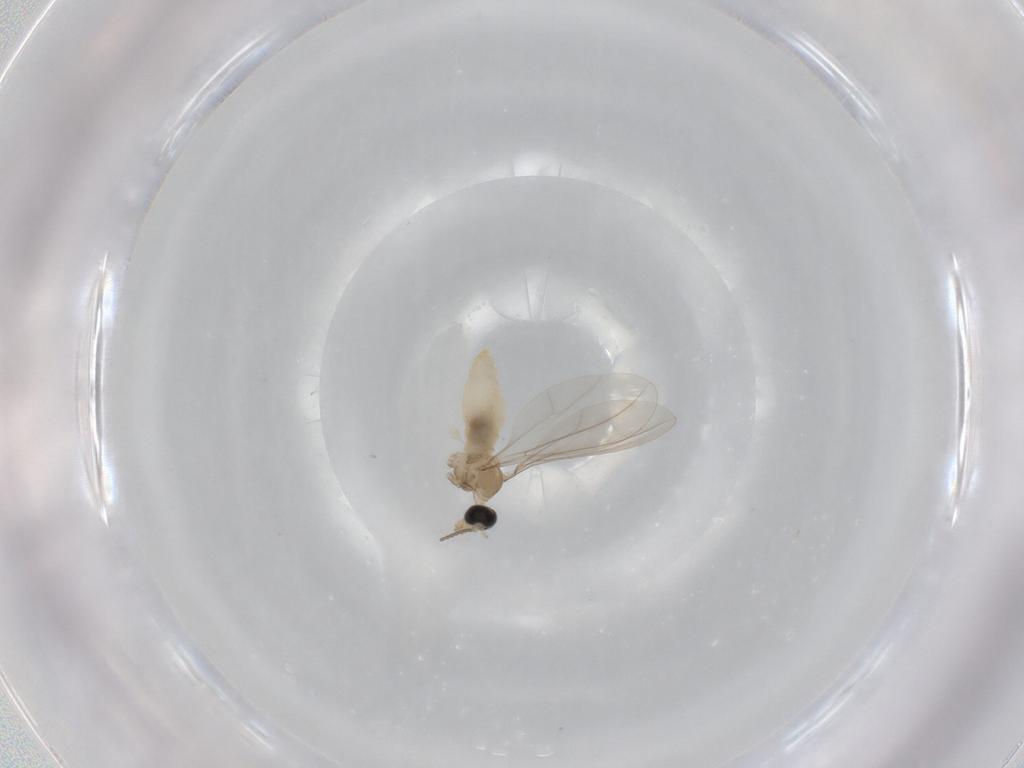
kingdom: Animalia
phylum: Arthropoda
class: Insecta
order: Diptera
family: Cecidomyiidae
